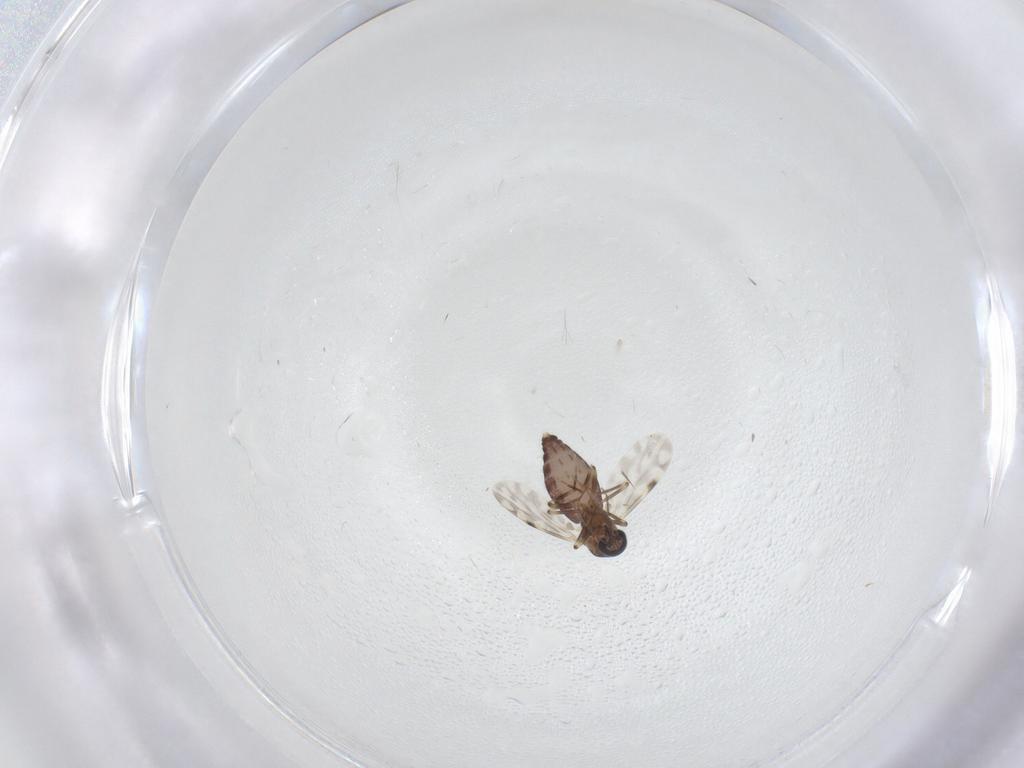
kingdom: Animalia
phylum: Arthropoda
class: Insecta
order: Diptera
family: Ceratopogonidae
